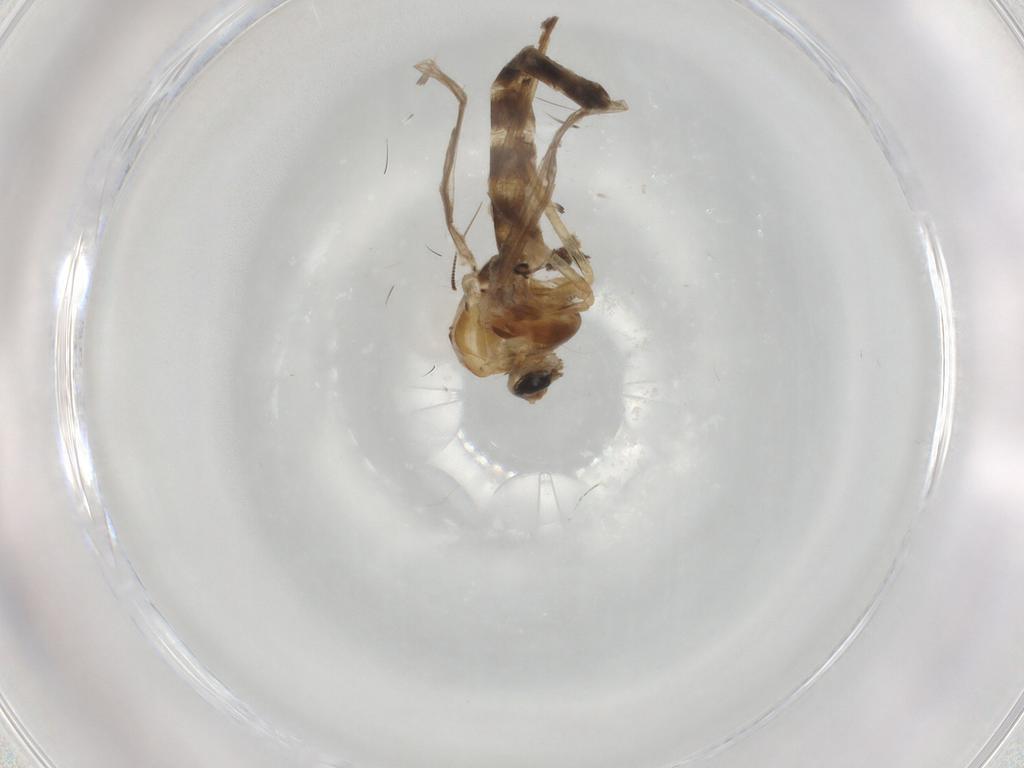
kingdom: Animalia
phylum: Arthropoda
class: Insecta
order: Diptera
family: Chironomidae
